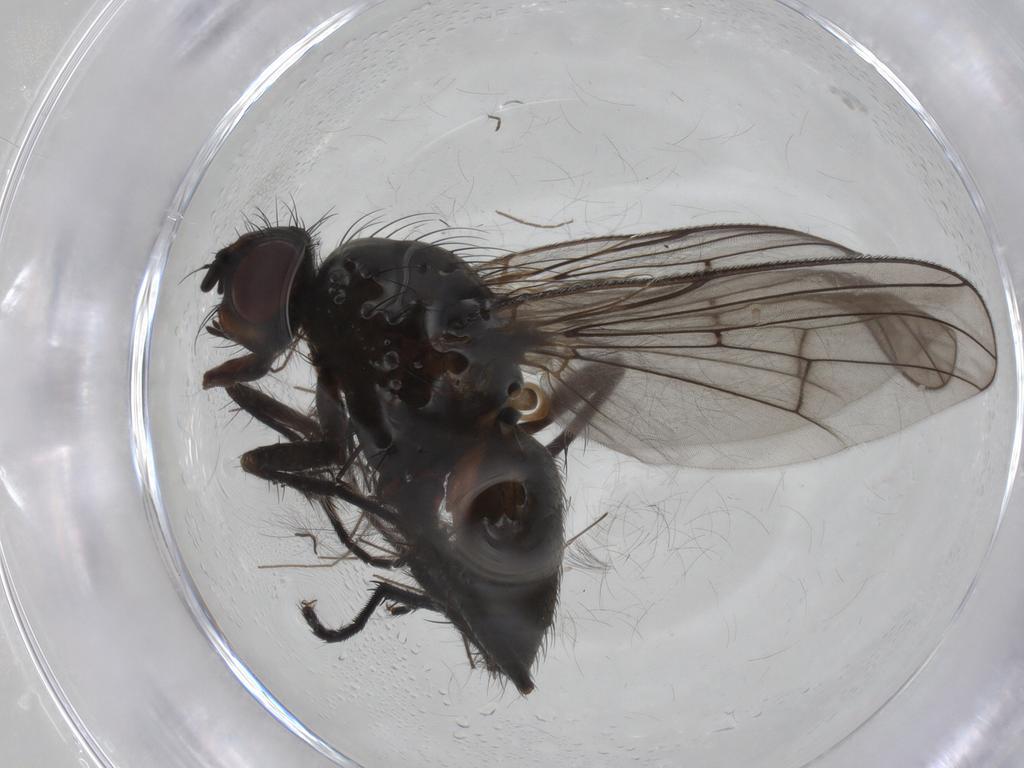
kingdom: Animalia
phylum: Arthropoda
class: Insecta
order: Diptera
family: Anthomyiidae
